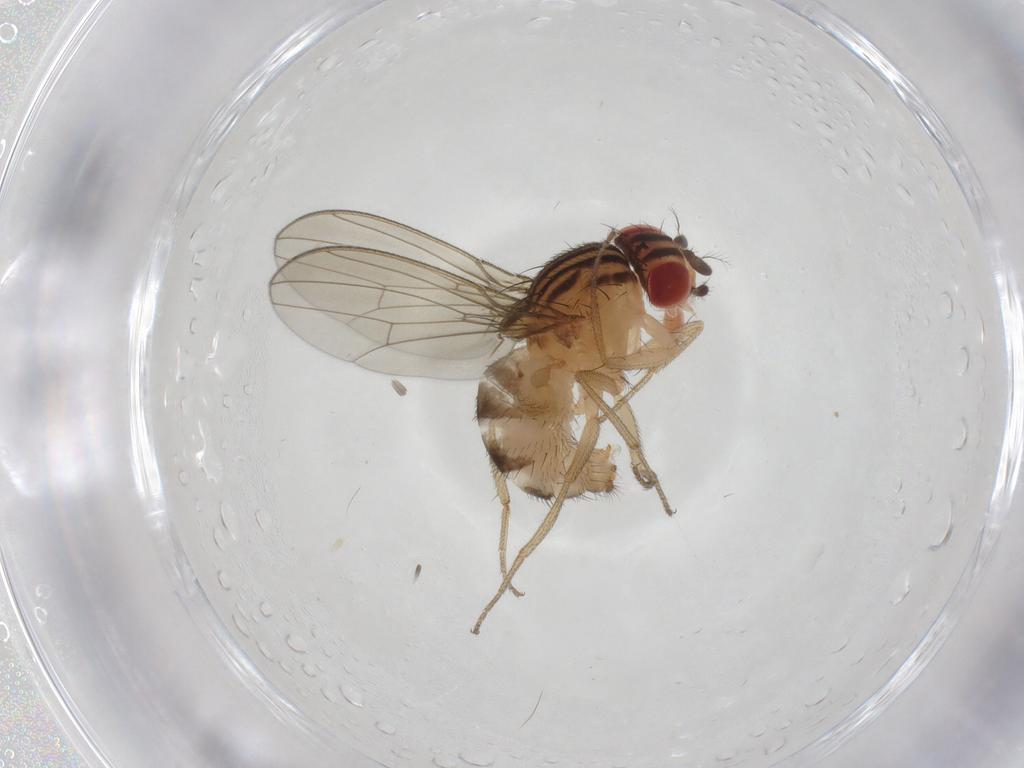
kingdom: Animalia
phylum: Arthropoda
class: Insecta
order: Diptera
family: Drosophilidae
